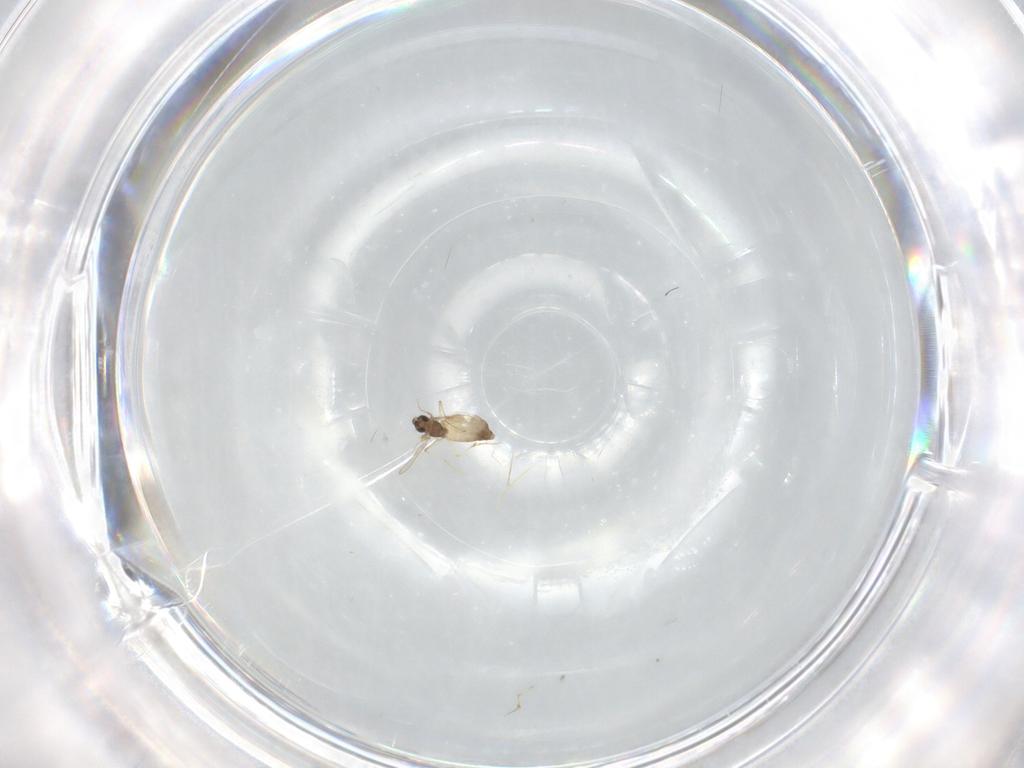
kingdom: Animalia
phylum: Arthropoda
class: Insecta
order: Diptera
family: Chironomidae
